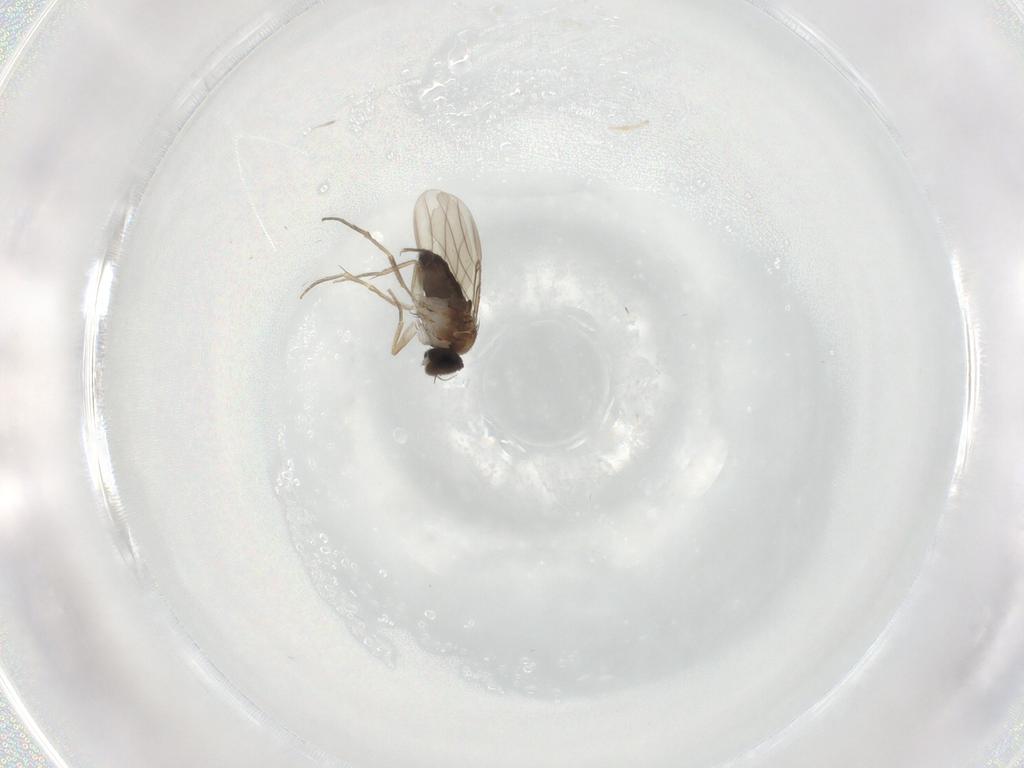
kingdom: Animalia
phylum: Arthropoda
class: Insecta
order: Diptera
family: Phoridae
